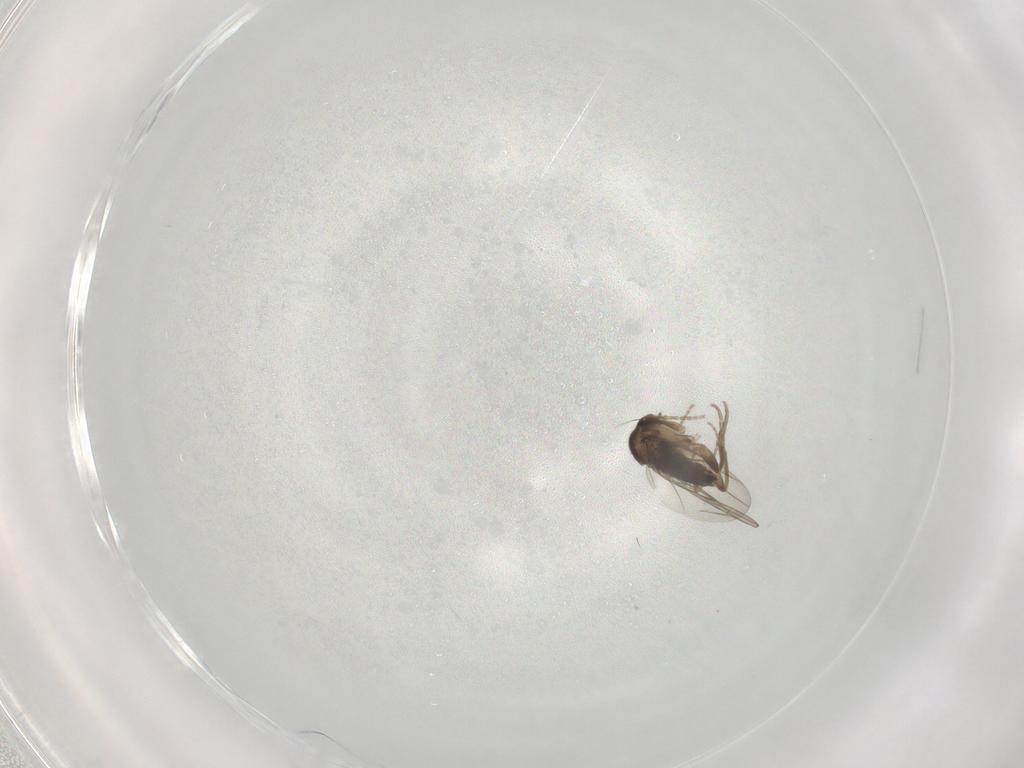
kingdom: Animalia
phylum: Arthropoda
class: Insecta
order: Diptera
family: Phoridae
